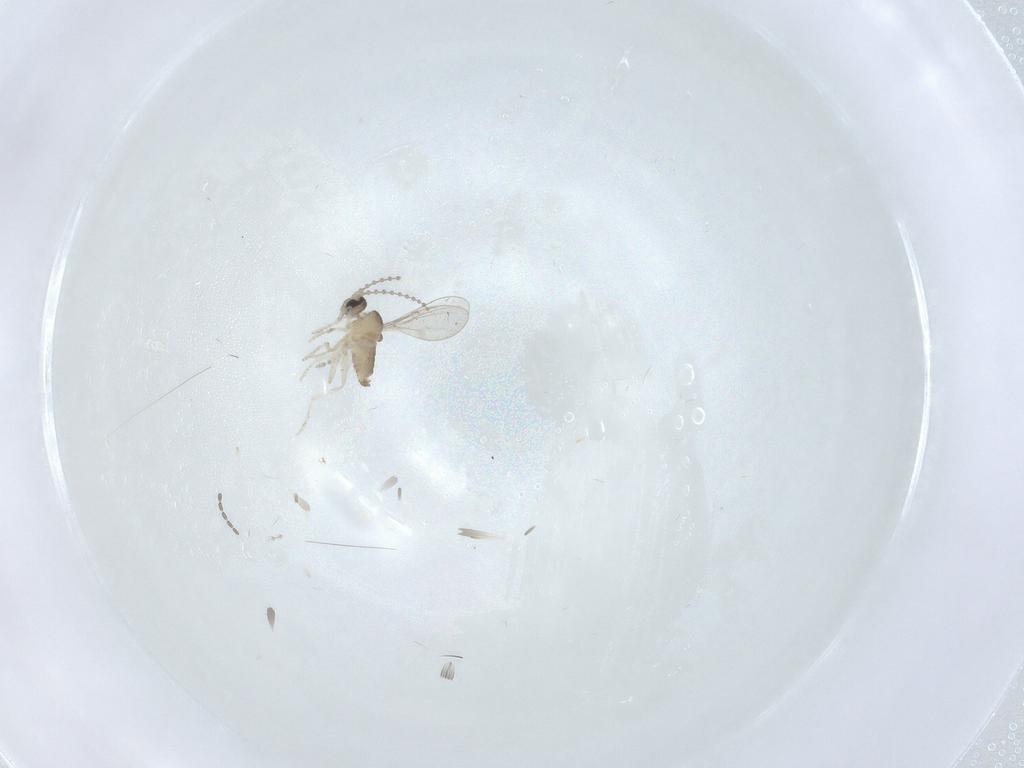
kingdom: Animalia
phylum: Arthropoda
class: Insecta
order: Diptera
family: Cecidomyiidae
